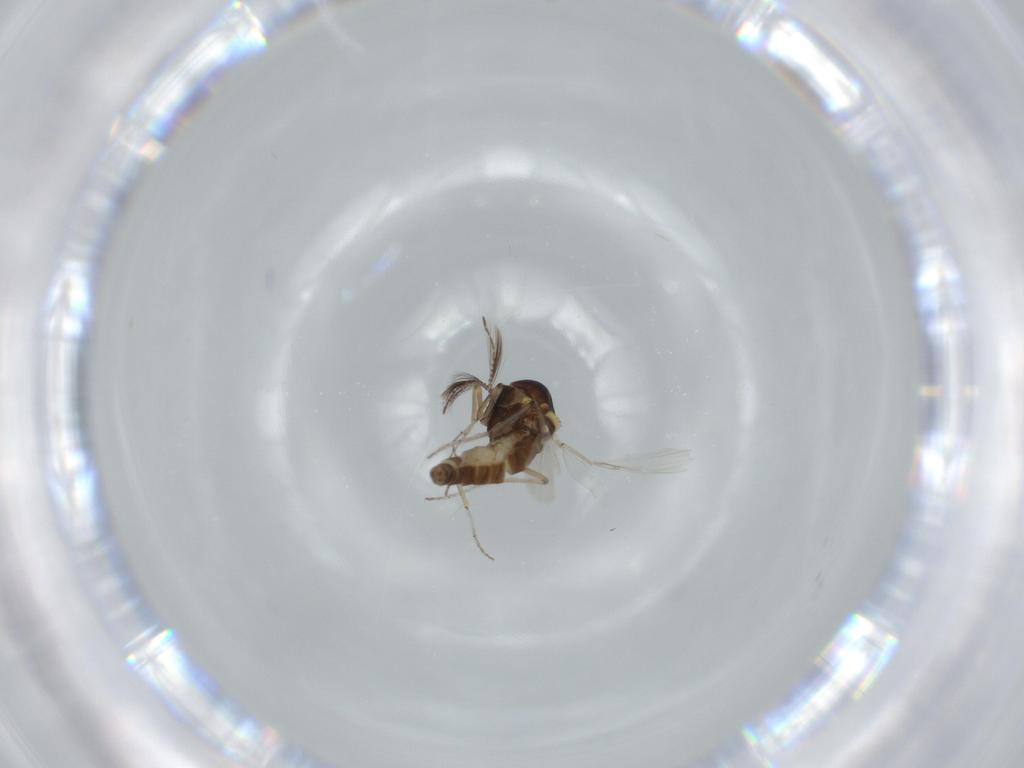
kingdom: Animalia
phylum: Arthropoda
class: Insecta
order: Diptera
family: Ceratopogonidae
